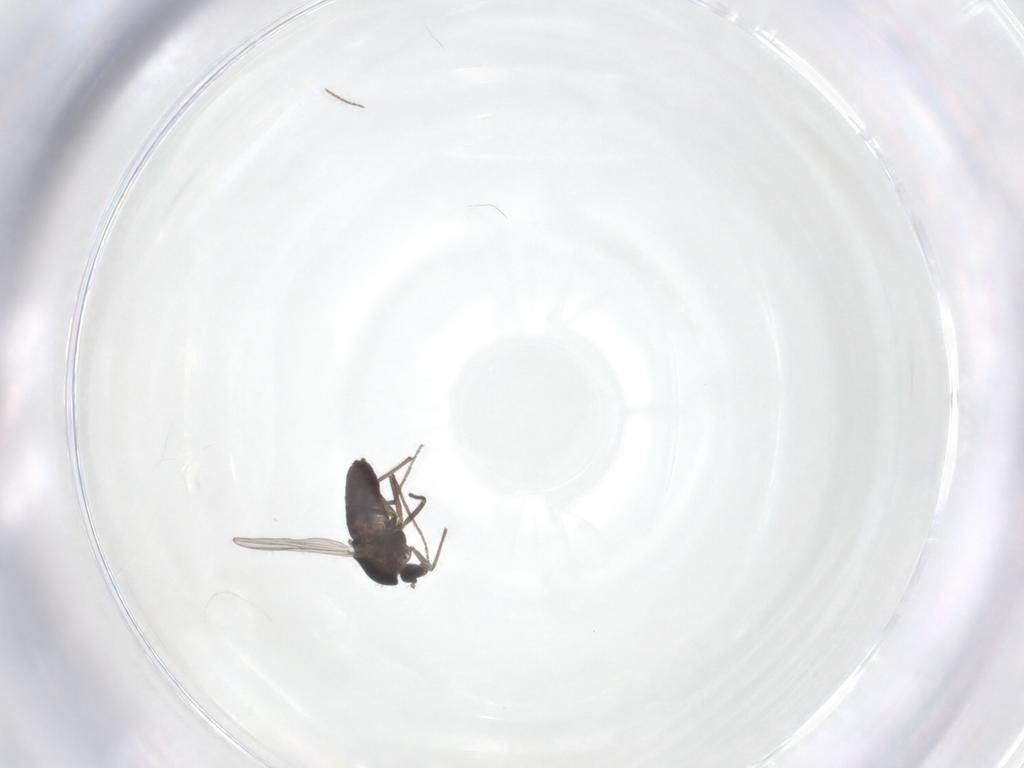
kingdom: Animalia
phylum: Arthropoda
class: Insecta
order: Diptera
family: Chironomidae
